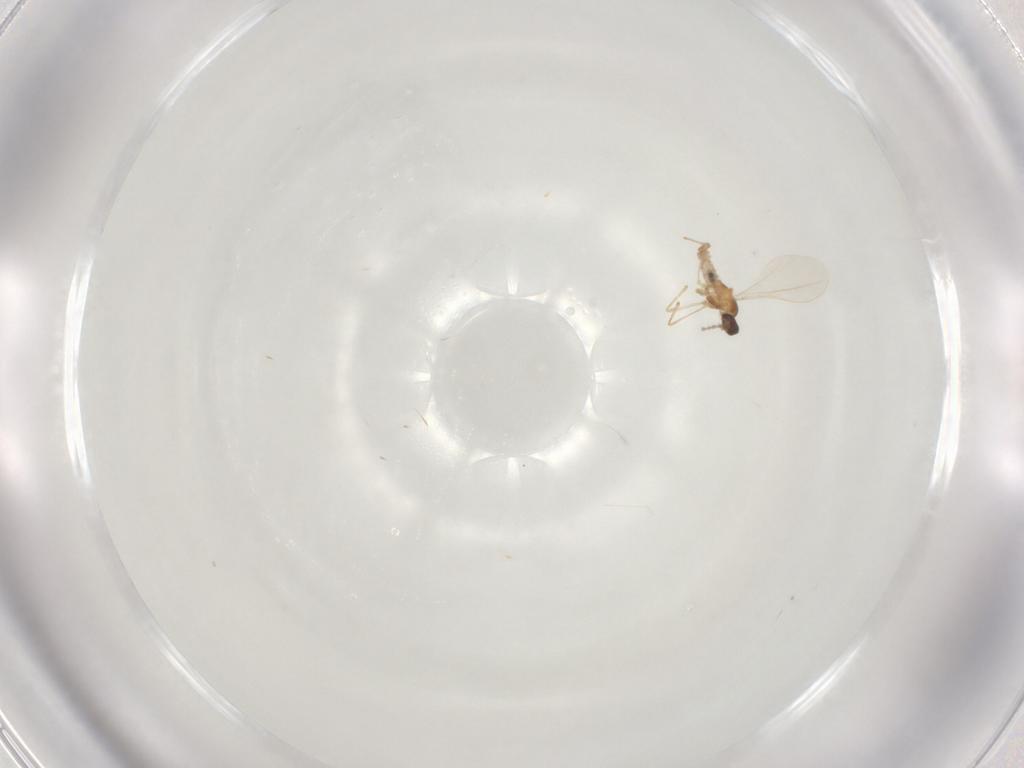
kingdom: Animalia
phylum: Arthropoda
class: Insecta
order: Diptera
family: Cecidomyiidae
